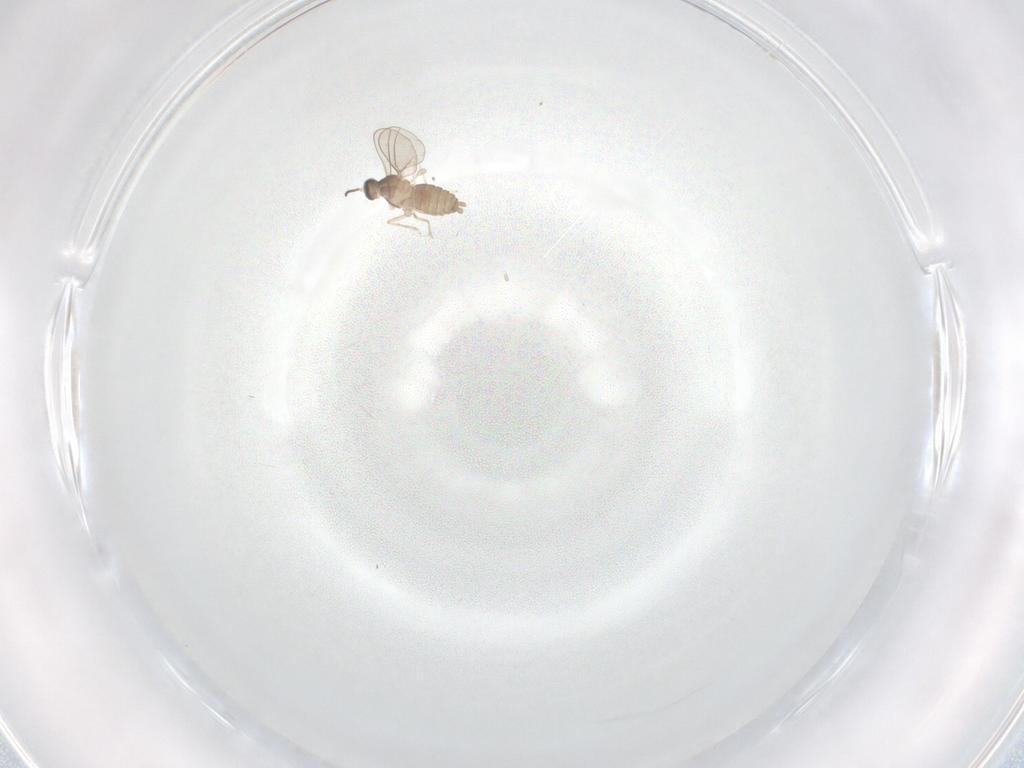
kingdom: Animalia
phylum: Arthropoda
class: Insecta
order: Diptera
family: Cecidomyiidae
